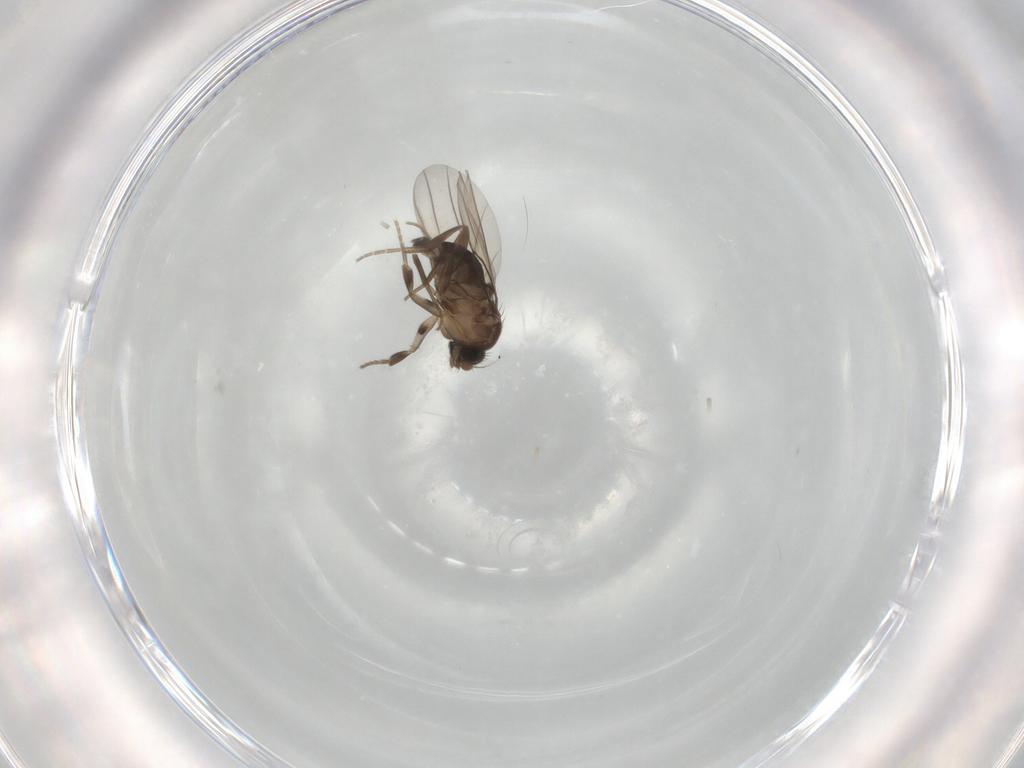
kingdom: Animalia
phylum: Arthropoda
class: Insecta
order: Diptera
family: Phoridae
